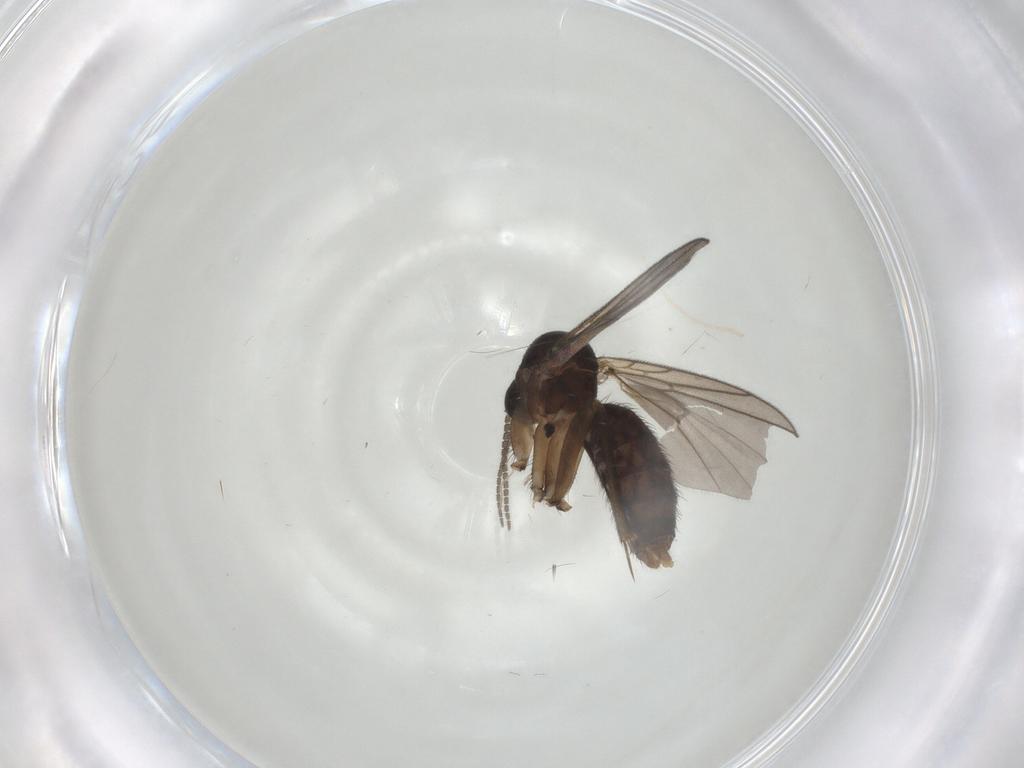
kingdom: Animalia
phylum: Arthropoda
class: Insecta
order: Diptera
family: Mycetophilidae
